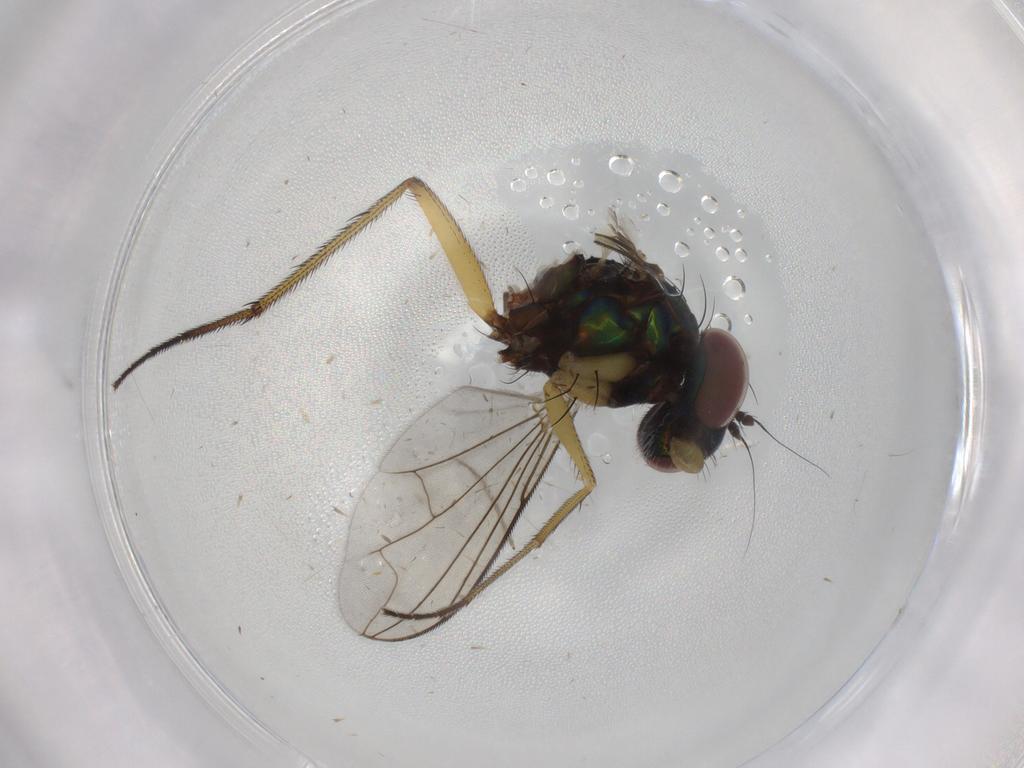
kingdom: Animalia
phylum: Arthropoda
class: Insecta
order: Diptera
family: Dolichopodidae
